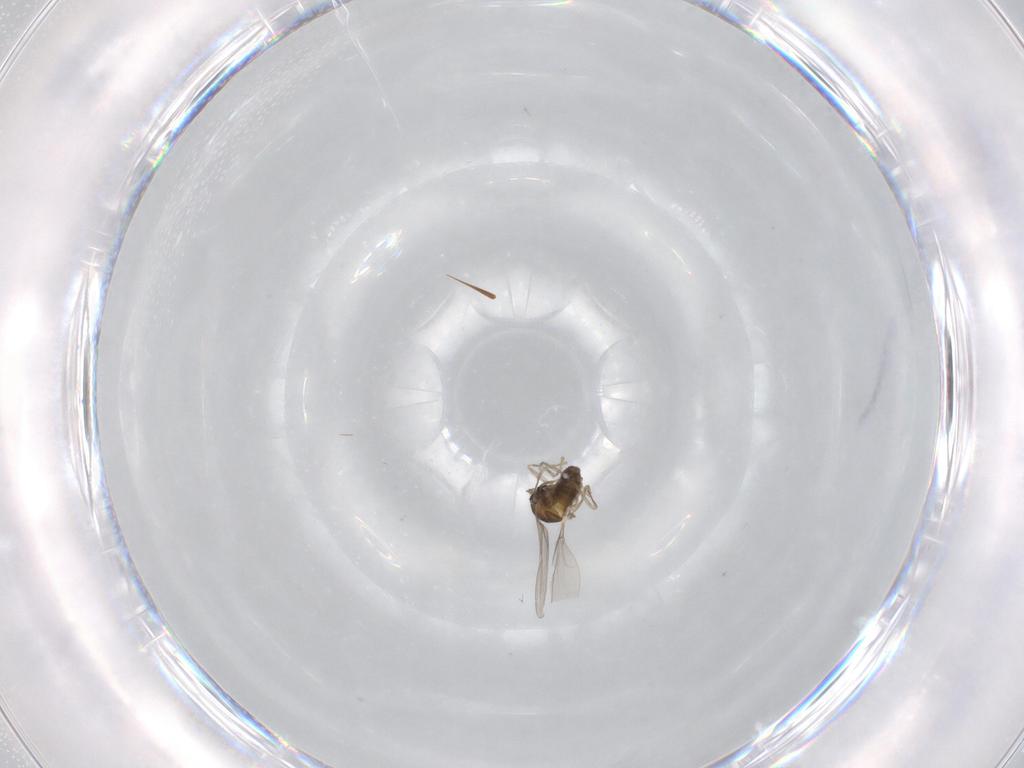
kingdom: Animalia
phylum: Arthropoda
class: Insecta
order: Diptera
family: Cecidomyiidae
